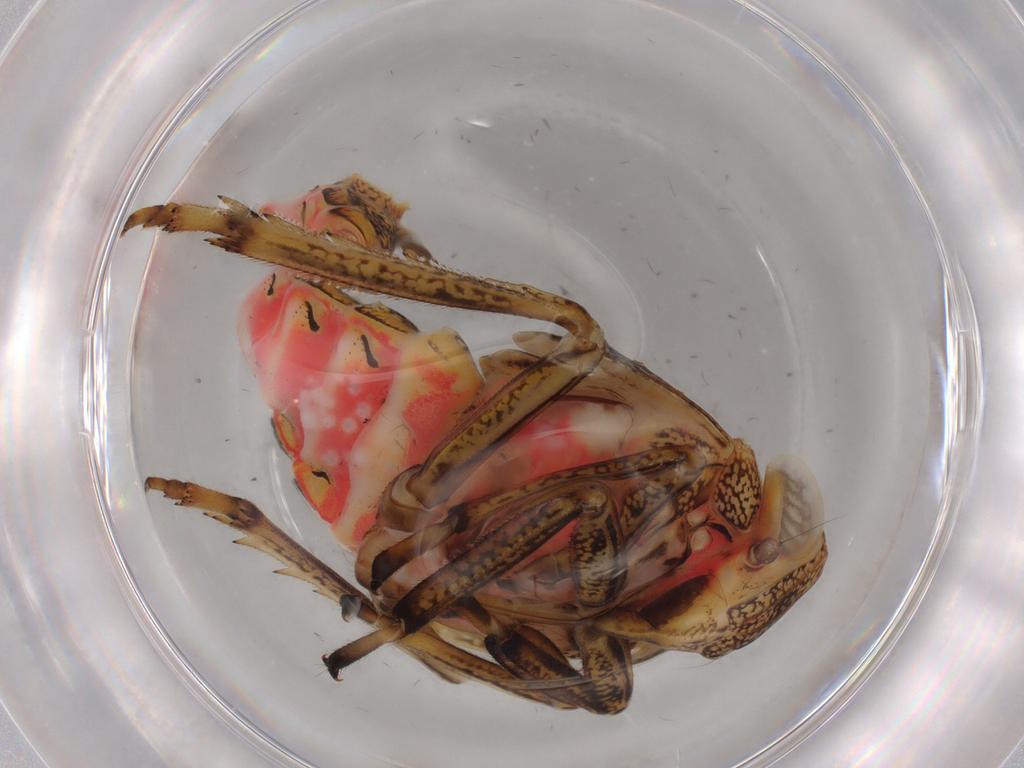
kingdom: Animalia
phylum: Arthropoda
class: Insecta
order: Hemiptera
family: Issidae
